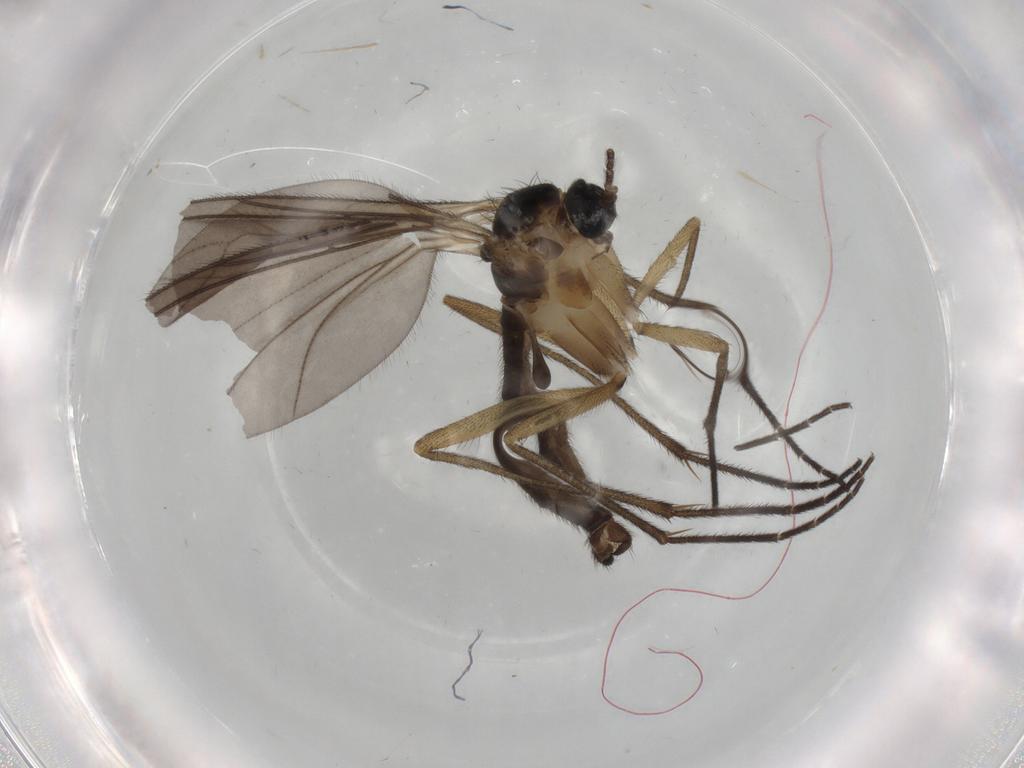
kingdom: Animalia
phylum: Arthropoda
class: Insecta
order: Diptera
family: Sciaridae
